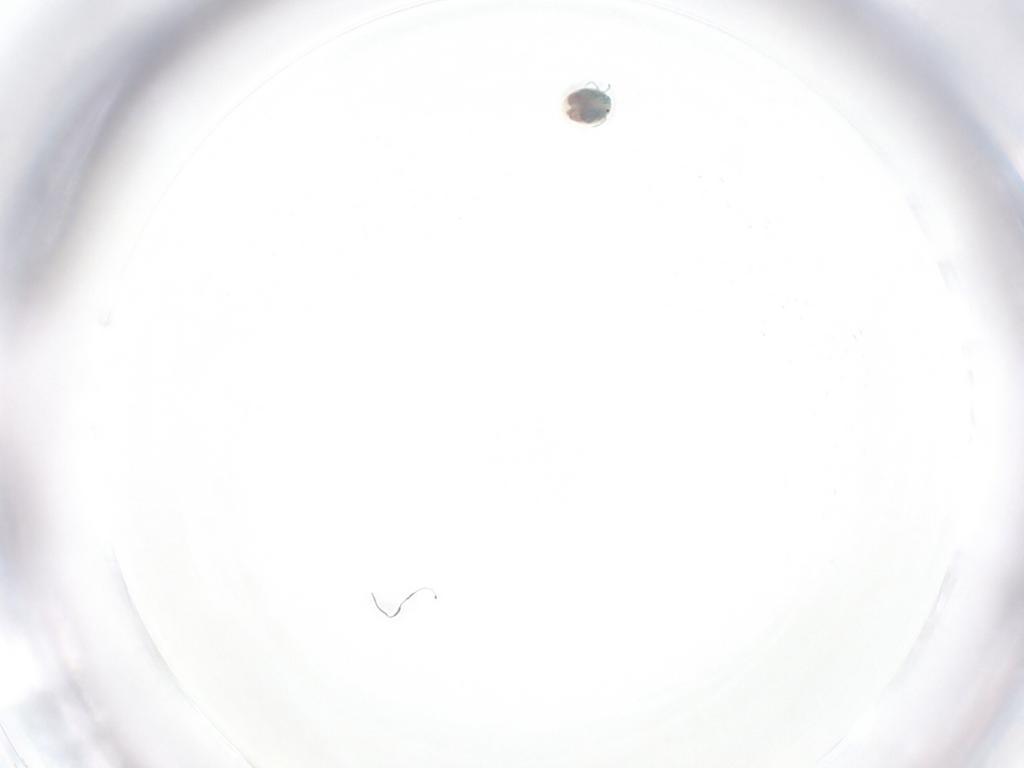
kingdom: Animalia
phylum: Arthropoda
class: Arachnida
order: Trombidiformes
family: Arrenuridae
